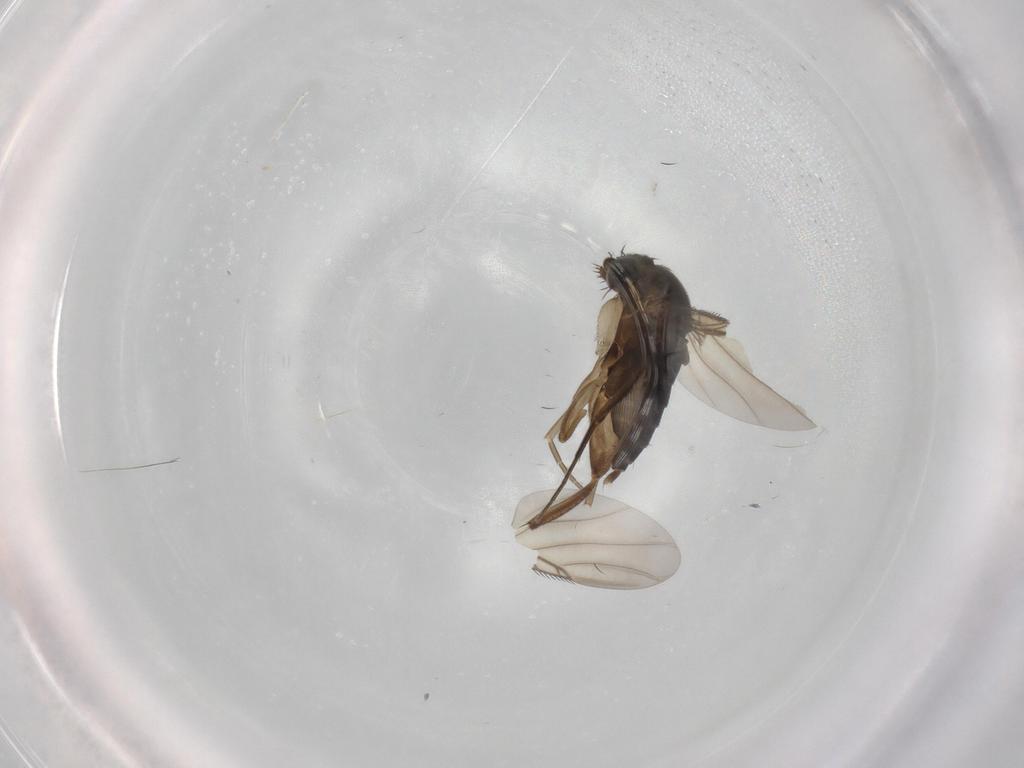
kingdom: Animalia
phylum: Arthropoda
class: Insecta
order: Diptera
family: Phoridae
